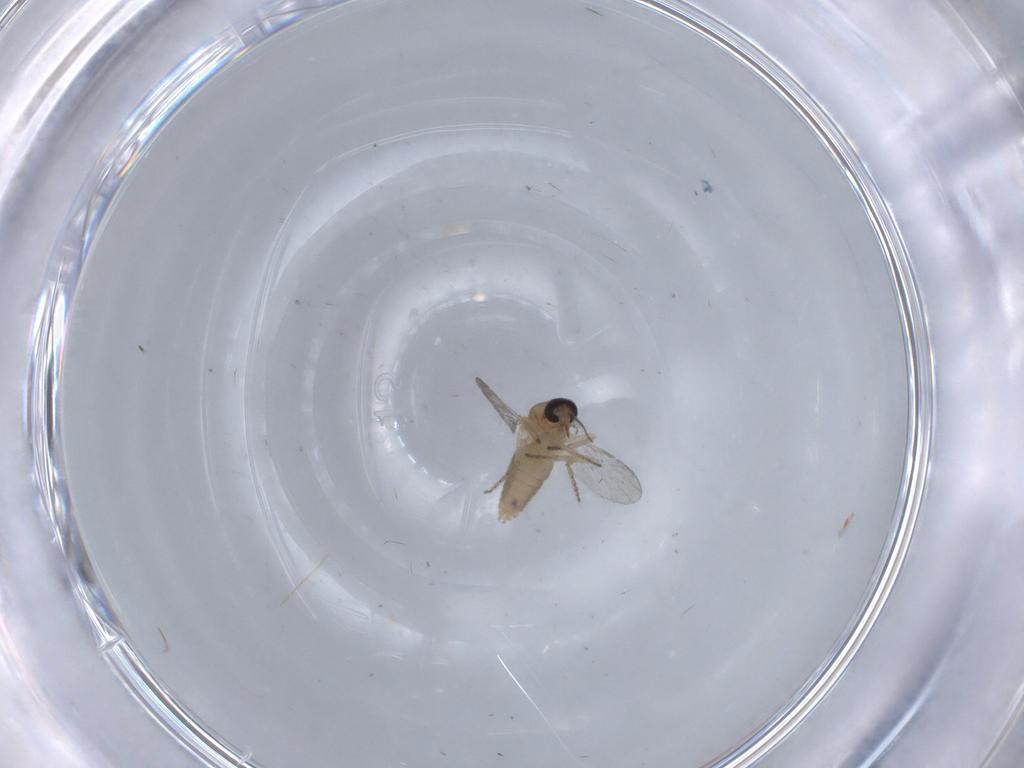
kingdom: Animalia
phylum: Arthropoda
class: Insecta
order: Diptera
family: Ceratopogonidae
